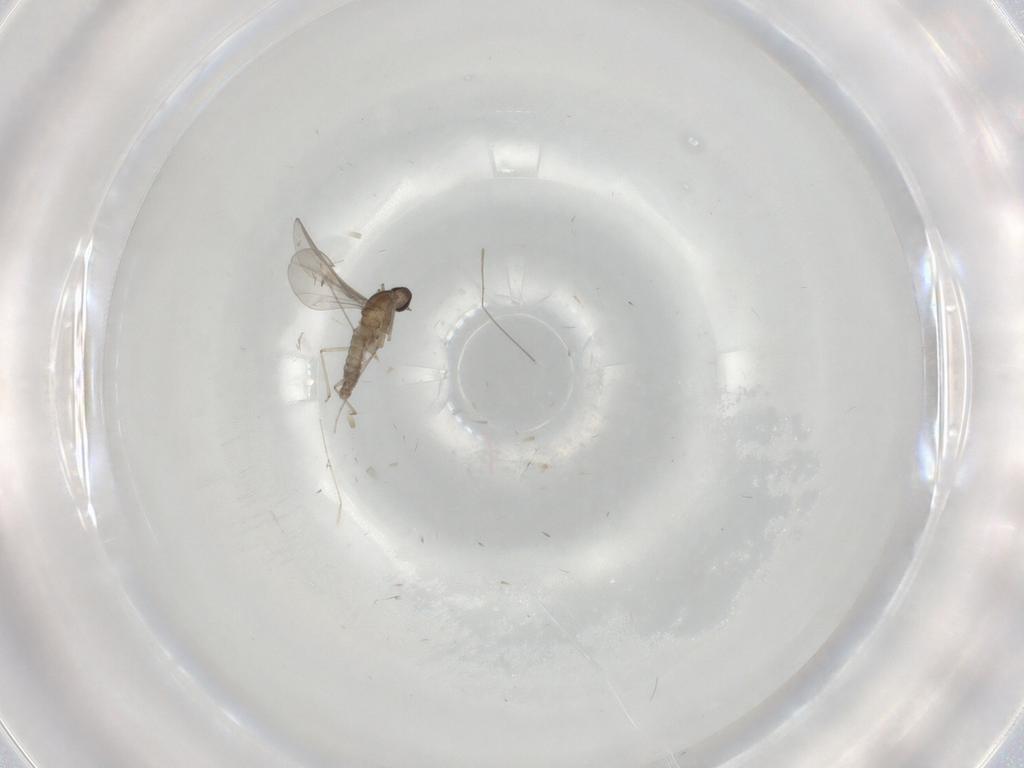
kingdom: Animalia
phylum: Arthropoda
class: Insecta
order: Diptera
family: Cecidomyiidae
